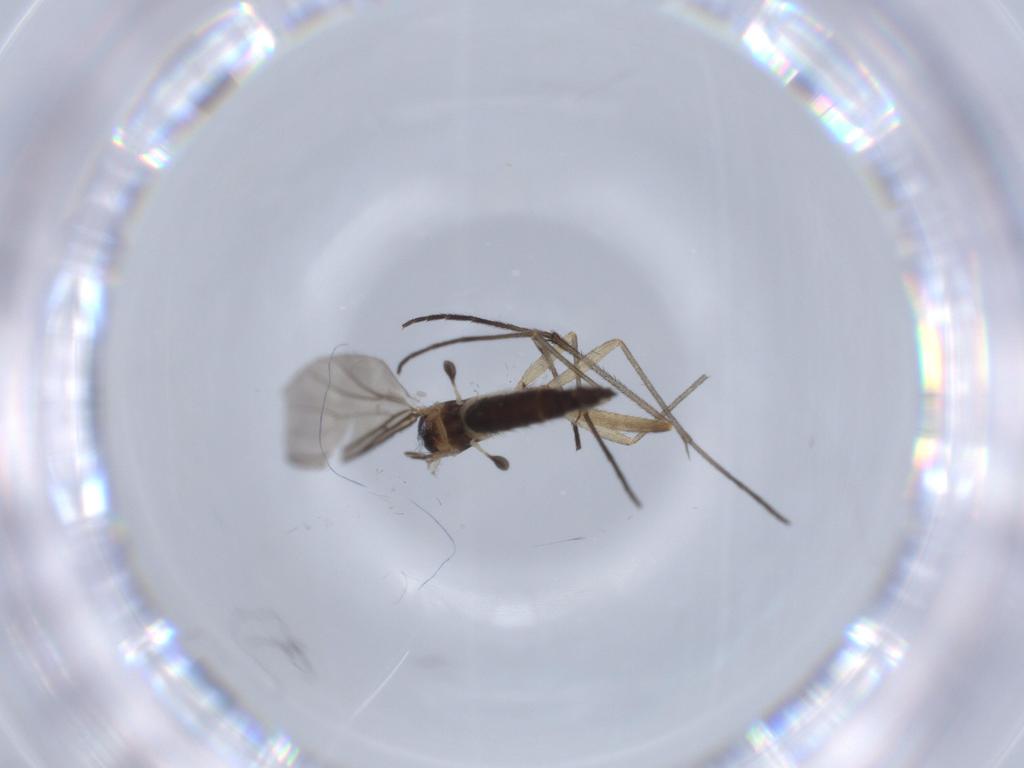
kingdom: Animalia
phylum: Arthropoda
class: Insecta
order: Diptera
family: Sciaridae
